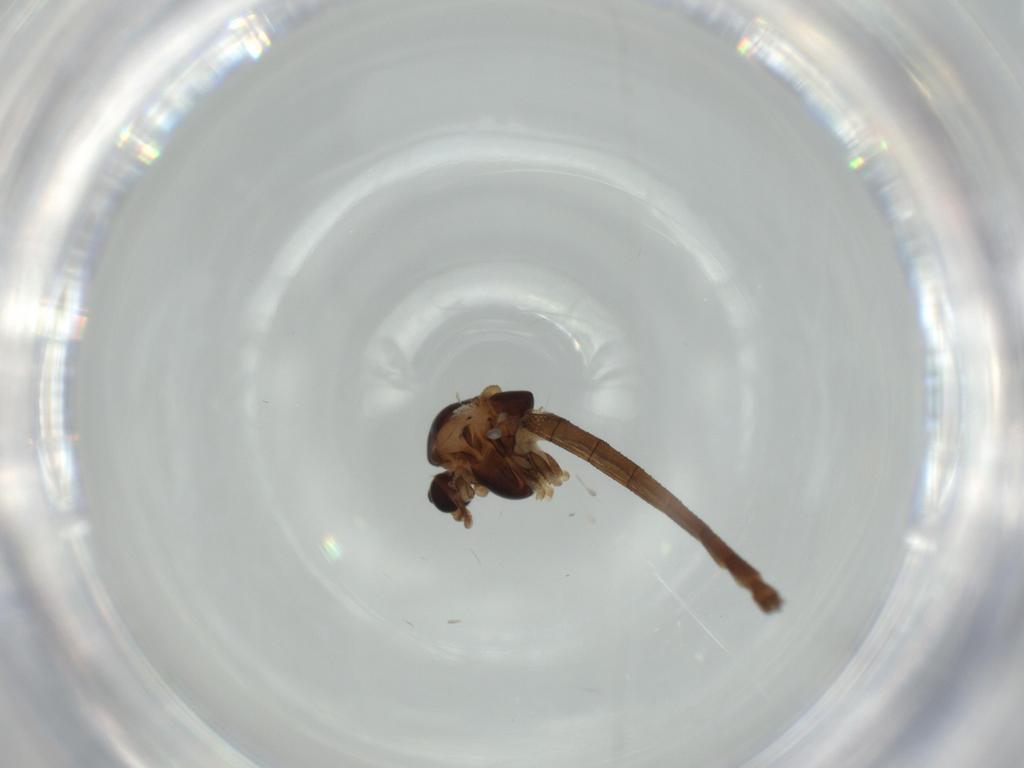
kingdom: Animalia
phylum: Arthropoda
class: Insecta
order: Diptera
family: Chironomidae
